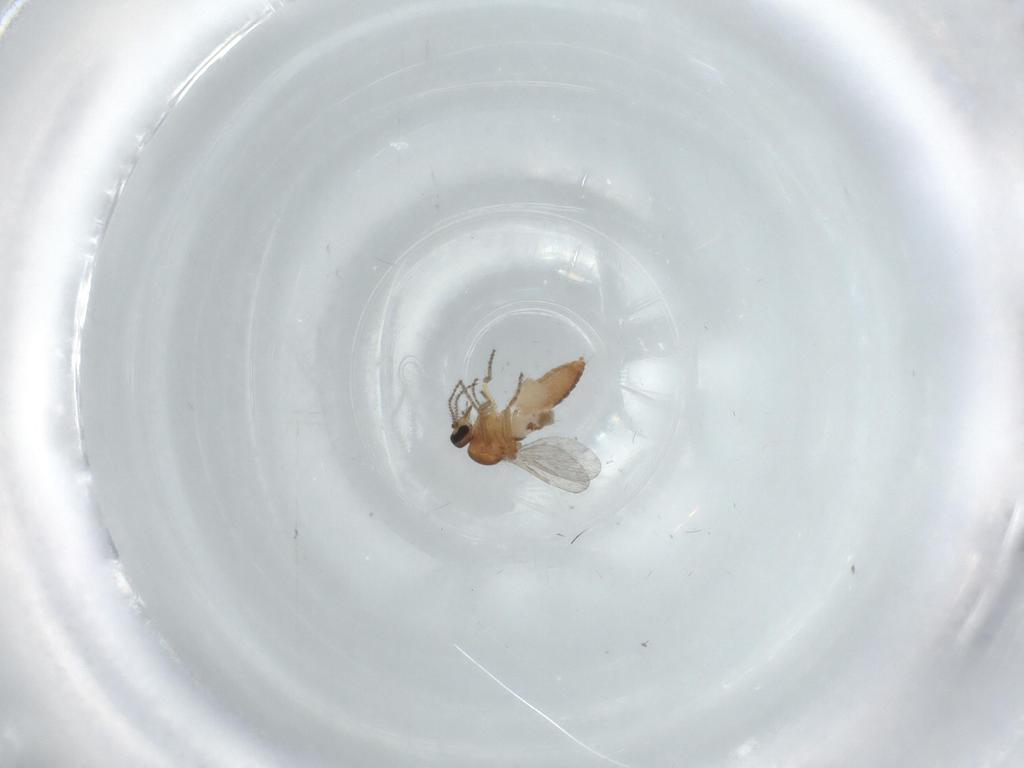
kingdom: Animalia
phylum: Arthropoda
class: Insecta
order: Diptera
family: Ceratopogonidae
